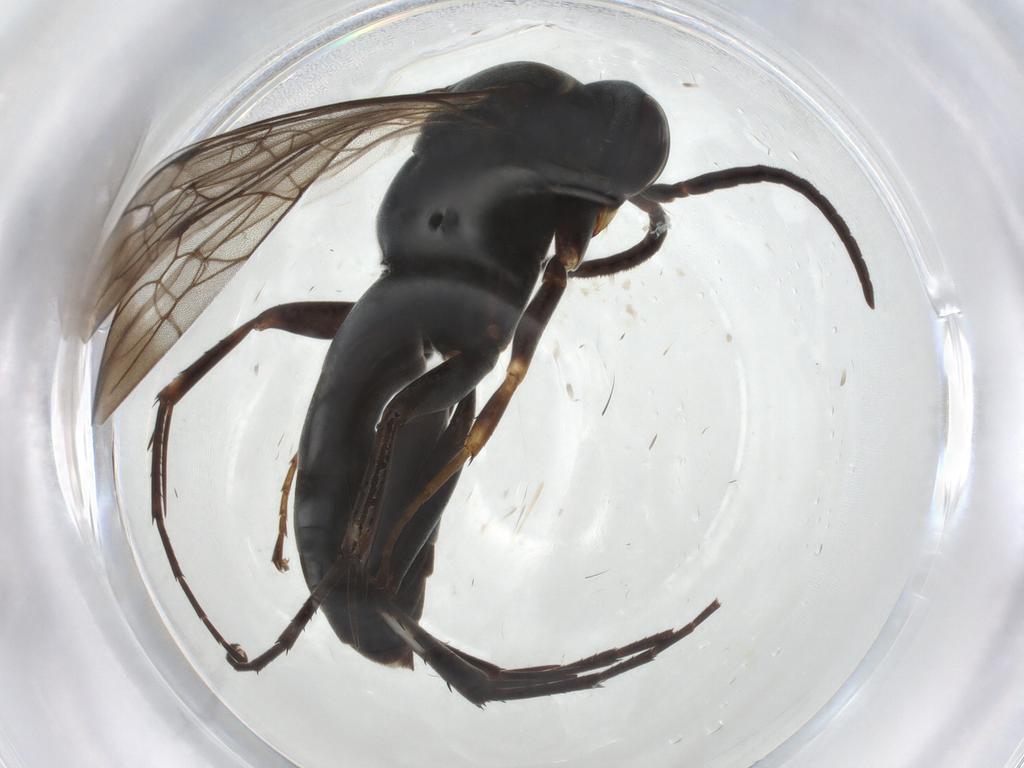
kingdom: Animalia
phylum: Arthropoda
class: Insecta
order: Hymenoptera
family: Pompilidae
